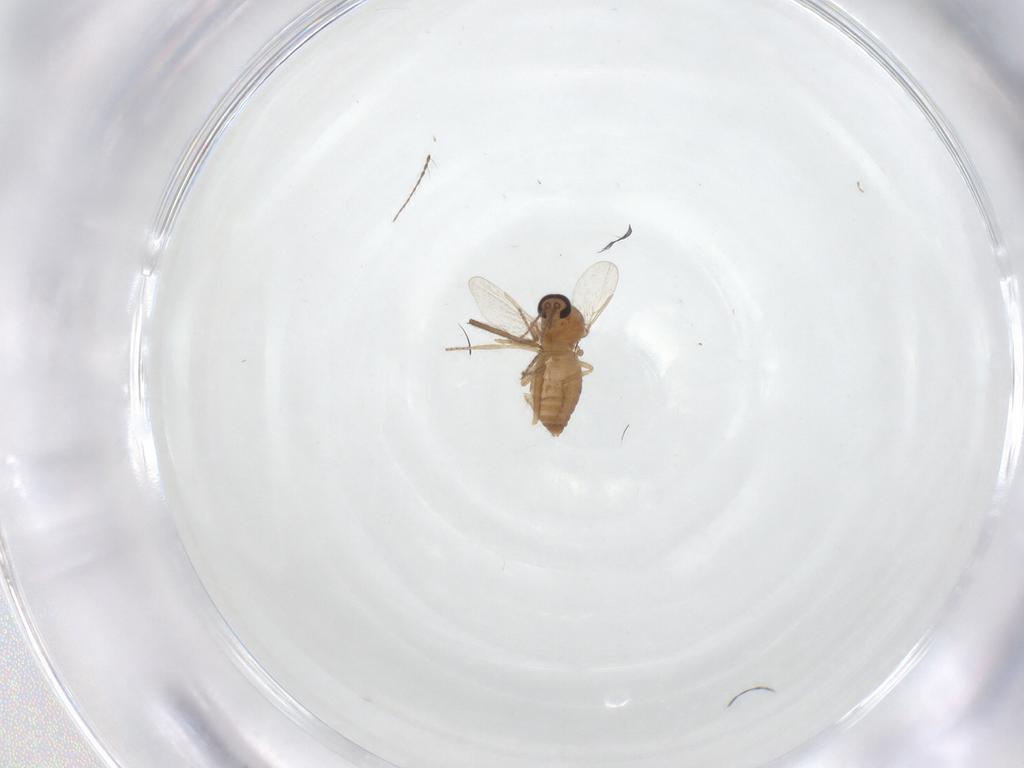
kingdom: Animalia
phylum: Arthropoda
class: Insecta
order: Diptera
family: Ceratopogonidae
